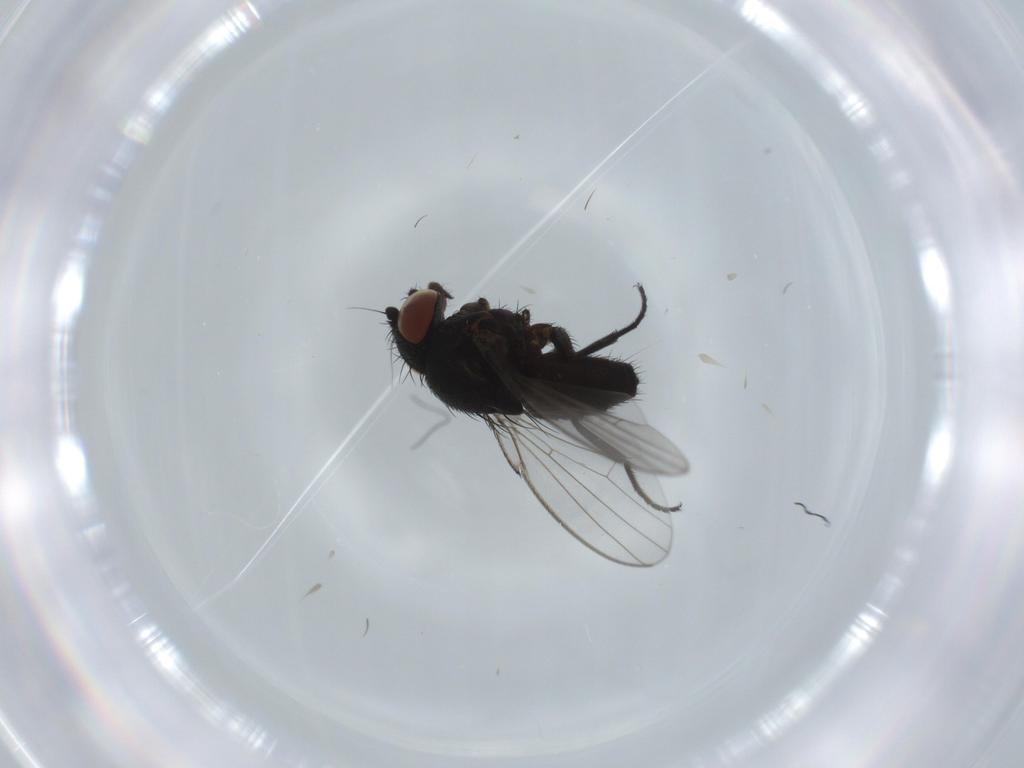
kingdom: Animalia
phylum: Arthropoda
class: Insecta
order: Diptera
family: Milichiidae
